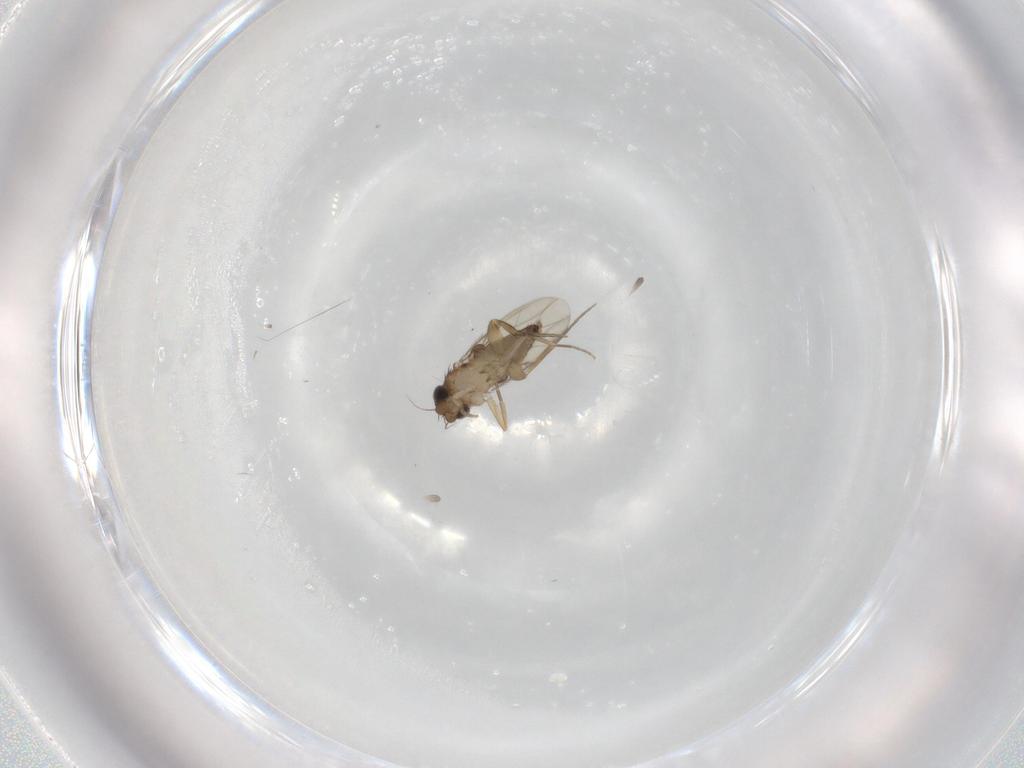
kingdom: Animalia
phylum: Arthropoda
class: Insecta
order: Diptera
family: Phoridae
